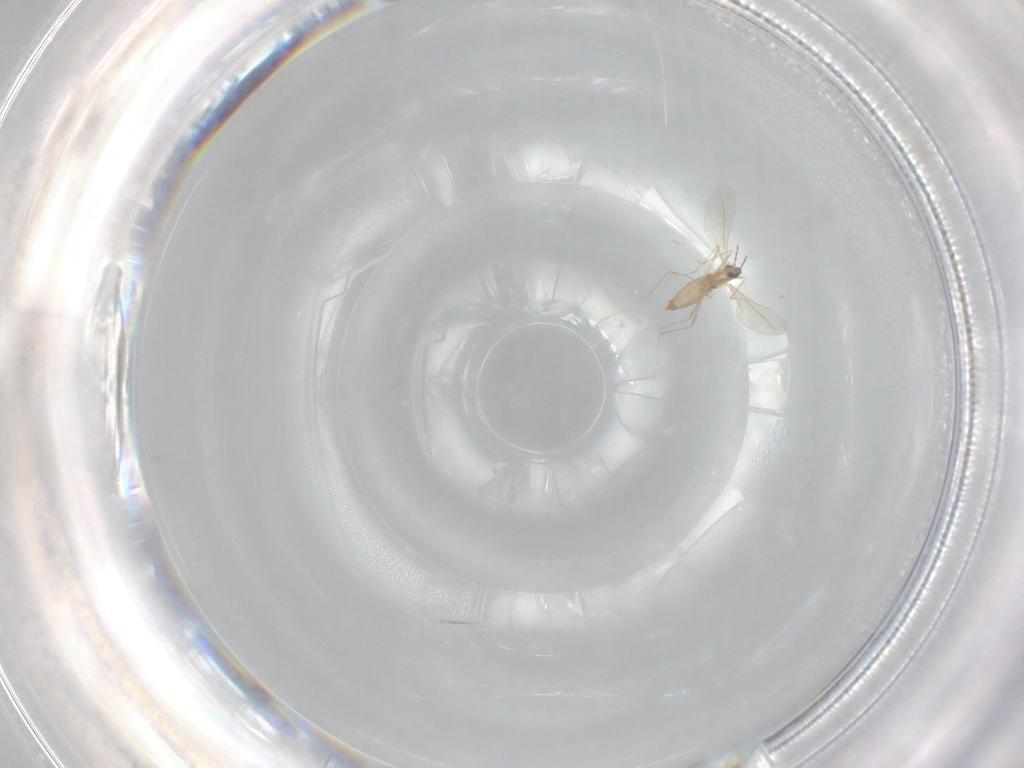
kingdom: Animalia
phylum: Arthropoda
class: Insecta
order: Diptera
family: Cecidomyiidae
